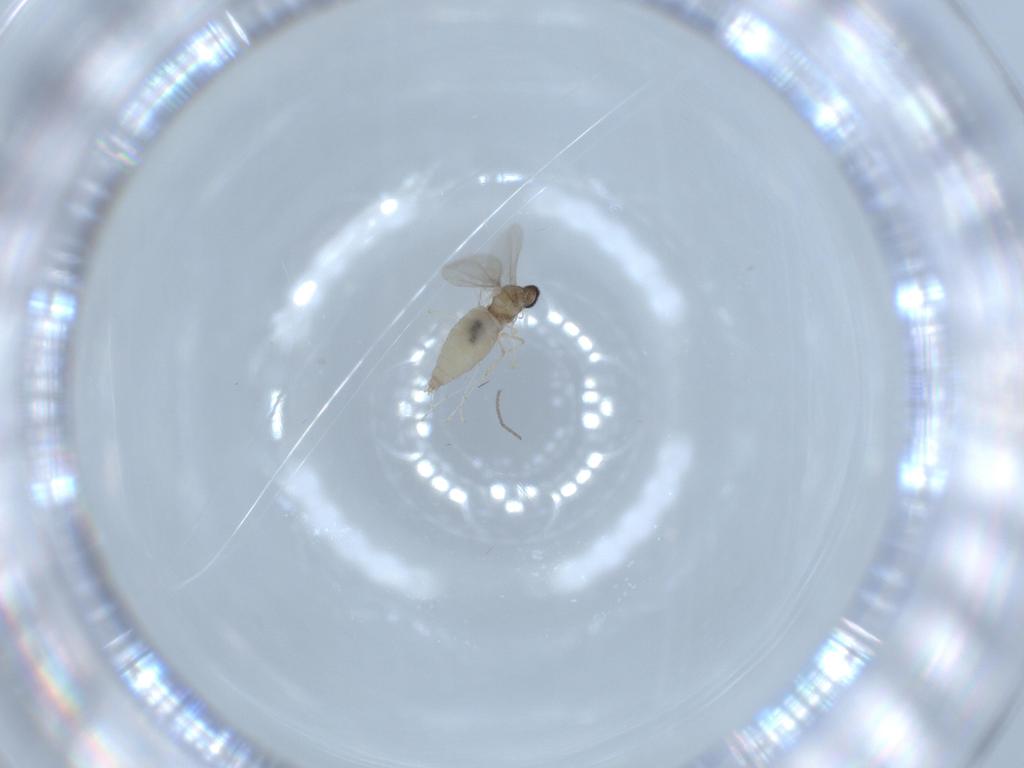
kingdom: Animalia
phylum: Arthropoda
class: Insecta
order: Diptera
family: Cecidomyiidae
